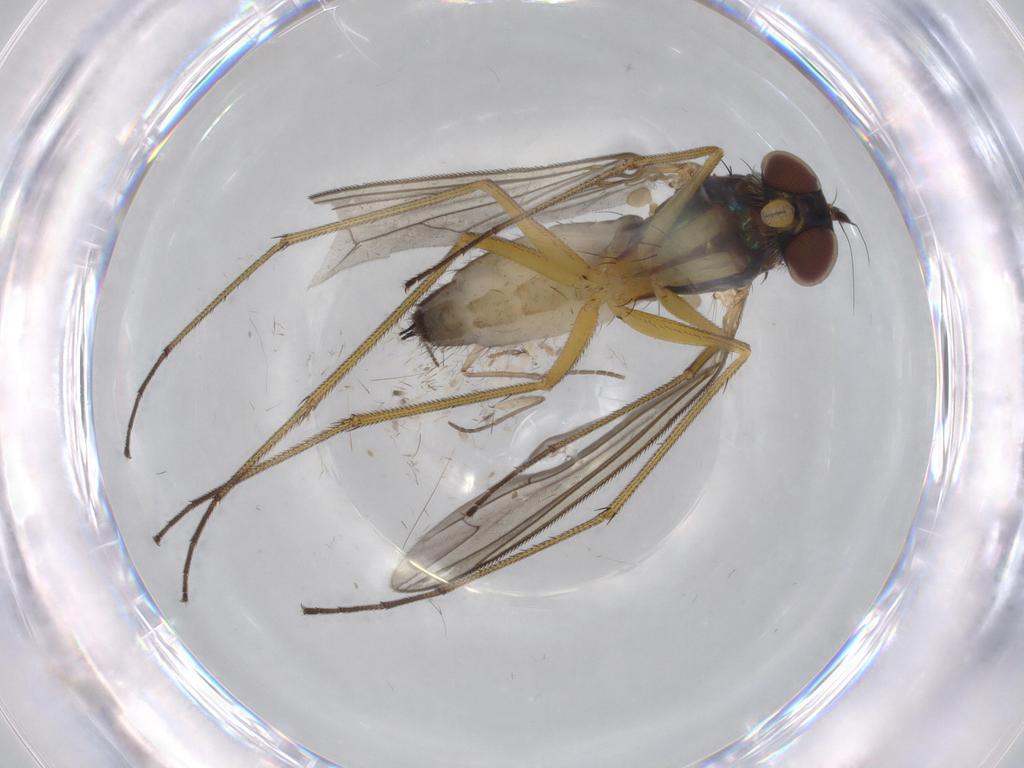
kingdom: Animalia
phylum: Arthropoda
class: Insecta
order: Diptera
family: Dolichopodidae
